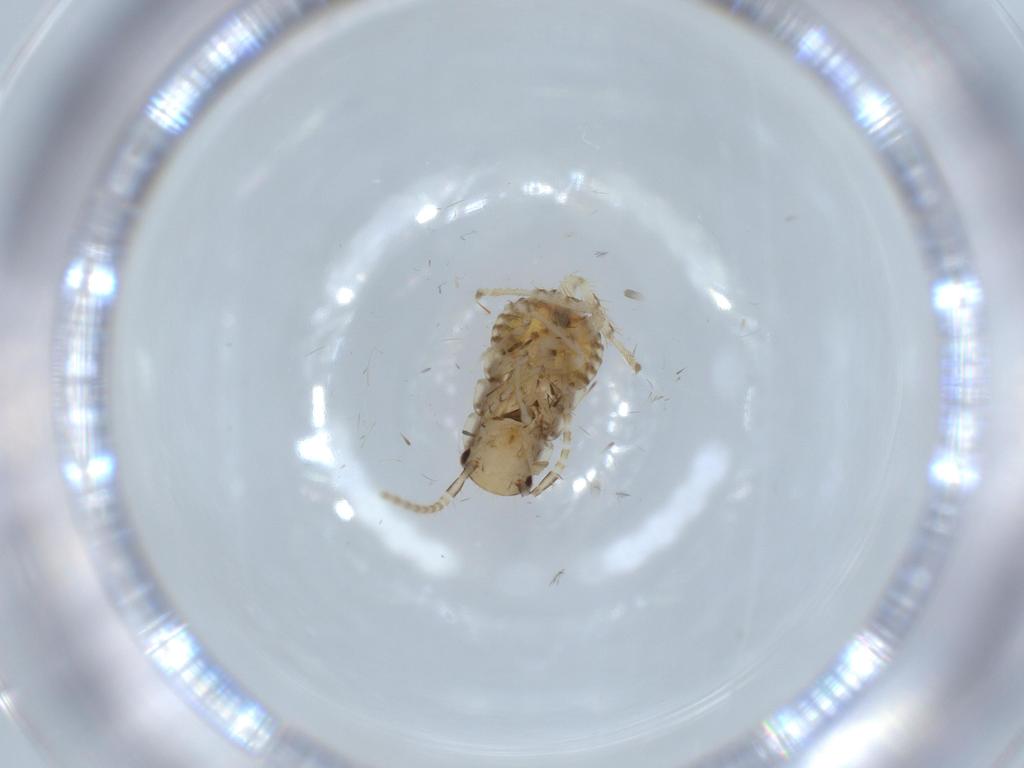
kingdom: Animalia
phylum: Arthropoda
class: Insecta
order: Blattodea
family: Ectobiidae
